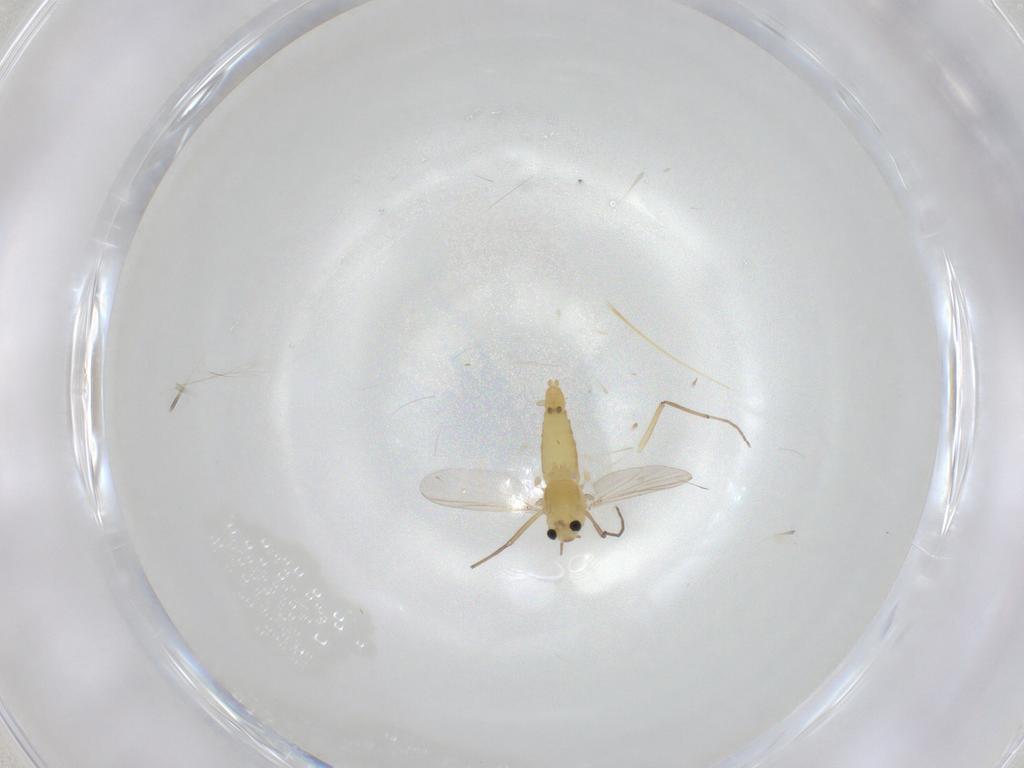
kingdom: Animalia
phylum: Arthropoda
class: Insecta
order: Diptera
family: Chironomidae
